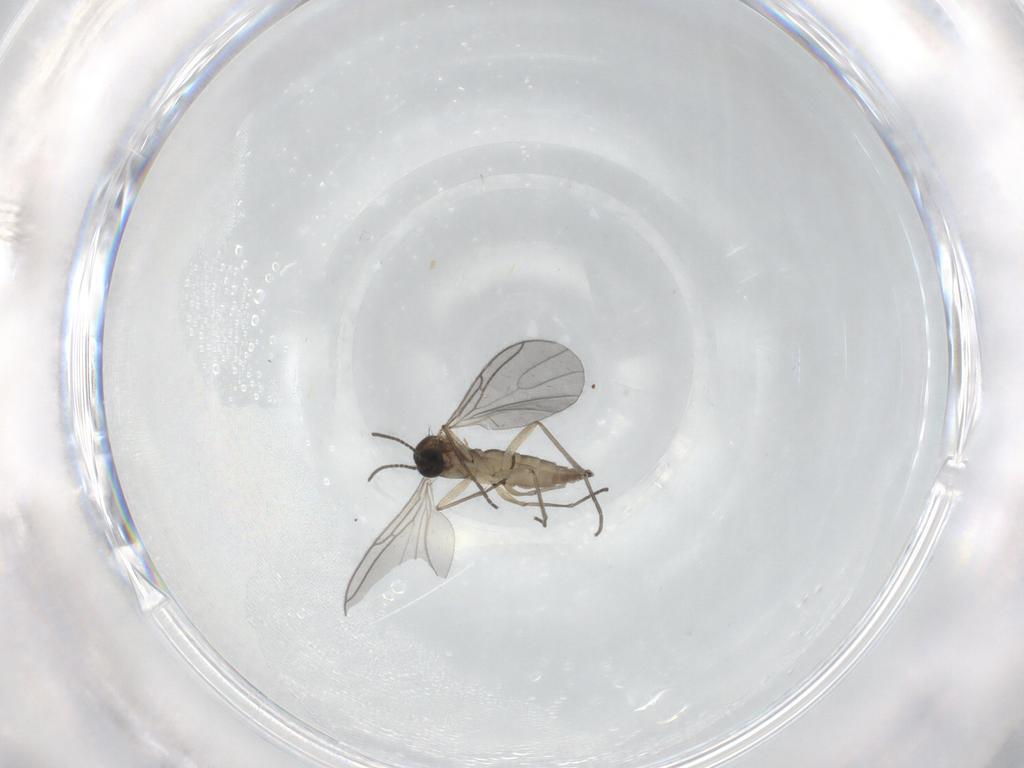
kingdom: Animalia
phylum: Arthropoda
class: Insecta
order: Diptera
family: Sciaridae
